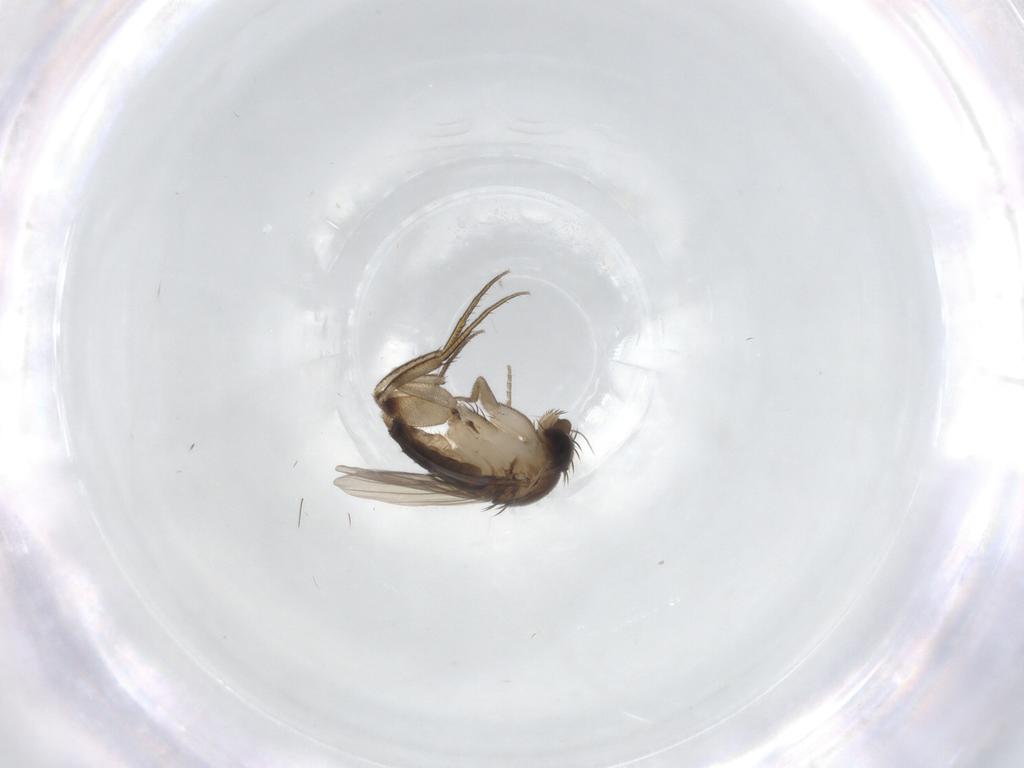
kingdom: Animalia
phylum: Arthropoda
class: Insecta
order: Diptera
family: Phoridae
